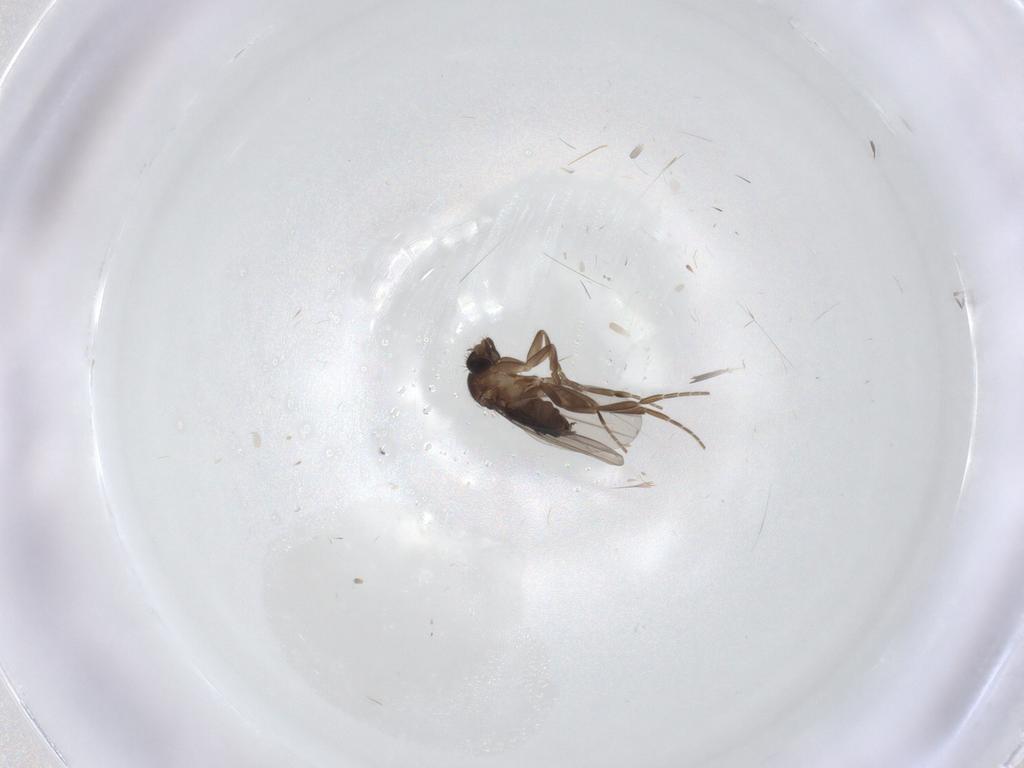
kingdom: Animalia
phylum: Arthropoda
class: Insecta
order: Diptera
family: Phoridae
